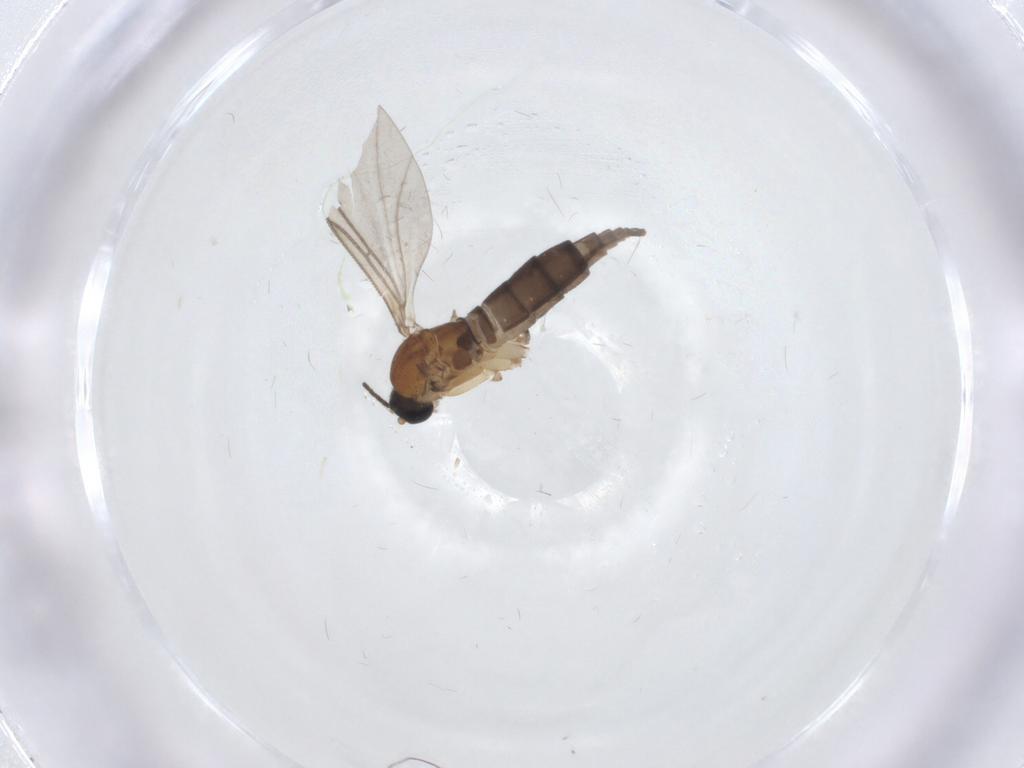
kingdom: Animalia
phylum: Arthropoda
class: Insecta
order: Diptera
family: Sciaridae
